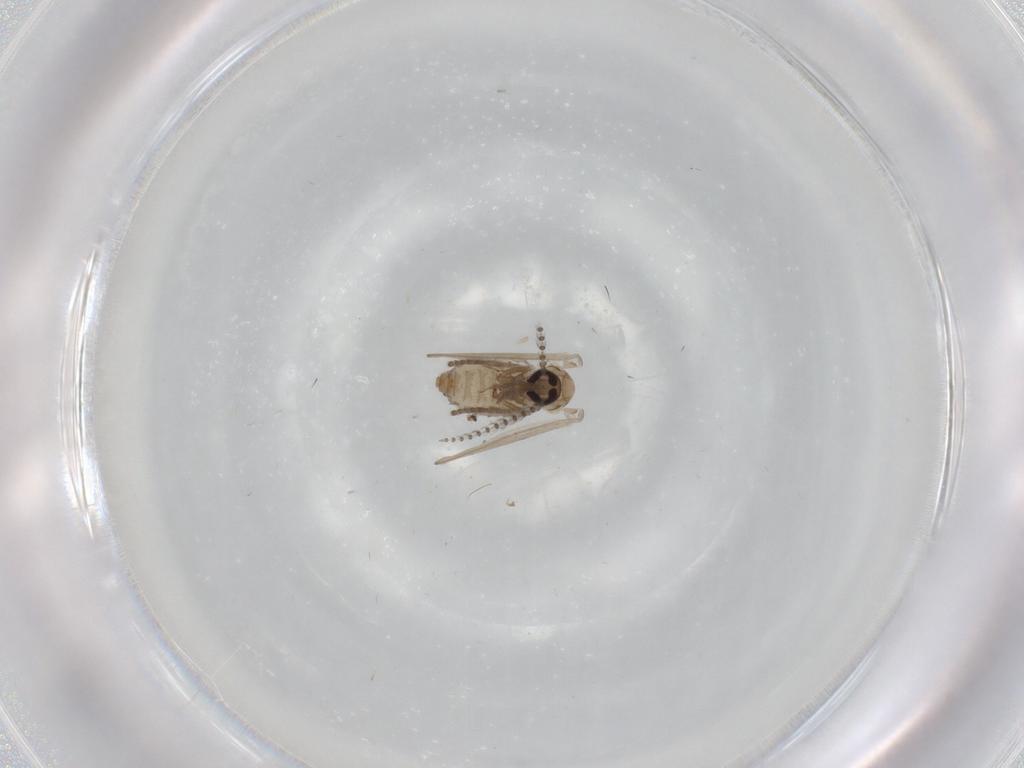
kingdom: Animalia
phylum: Arthropoda
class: Insecta
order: Diptera
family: Psychodidae
